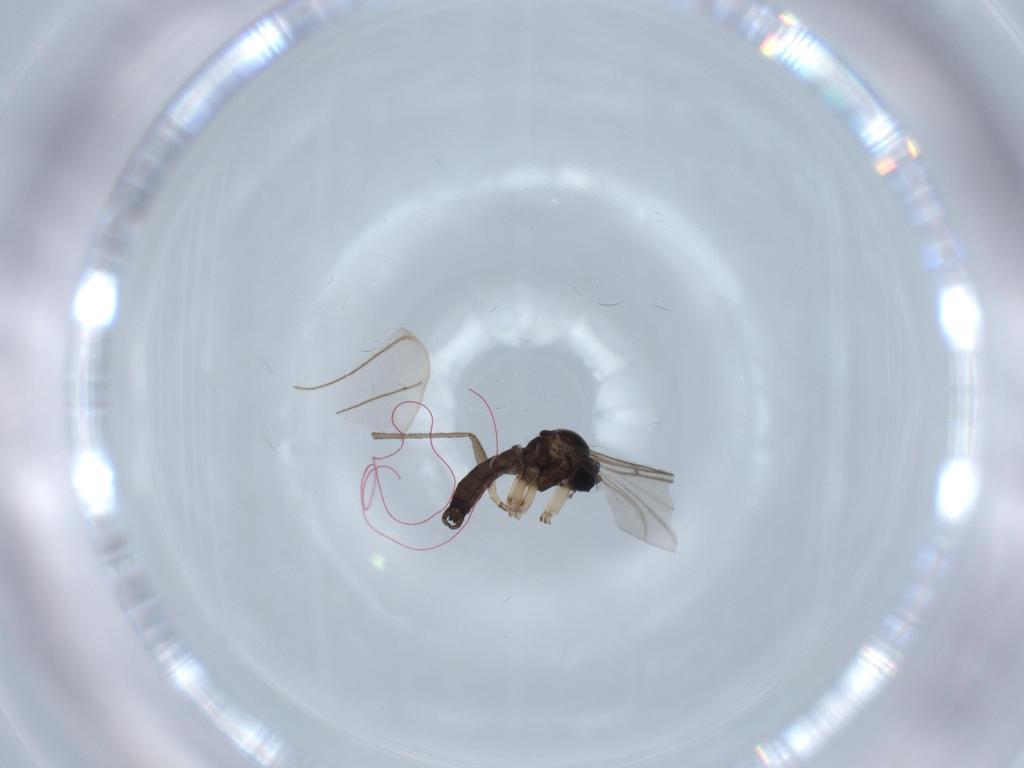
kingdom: Animalia
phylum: Arthropoda
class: Insecta
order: Diptera
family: Sciaridae
